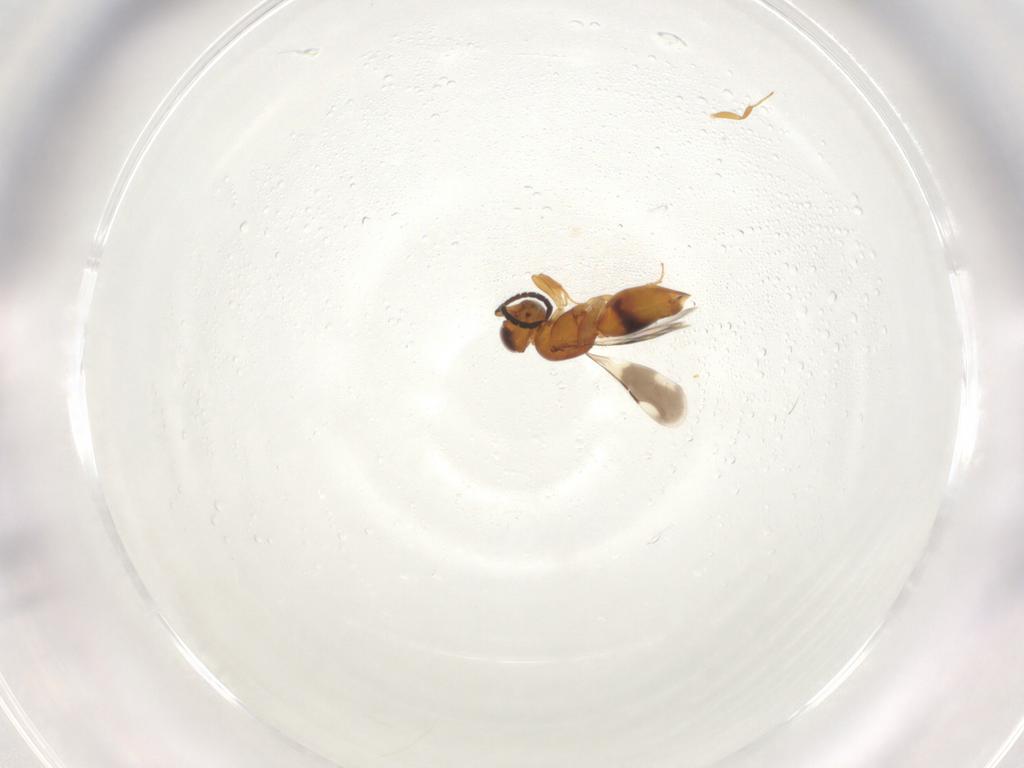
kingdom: Animalia
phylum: Arthropoda
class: Insecta
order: Hymenoptera
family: Ceraphronidae
